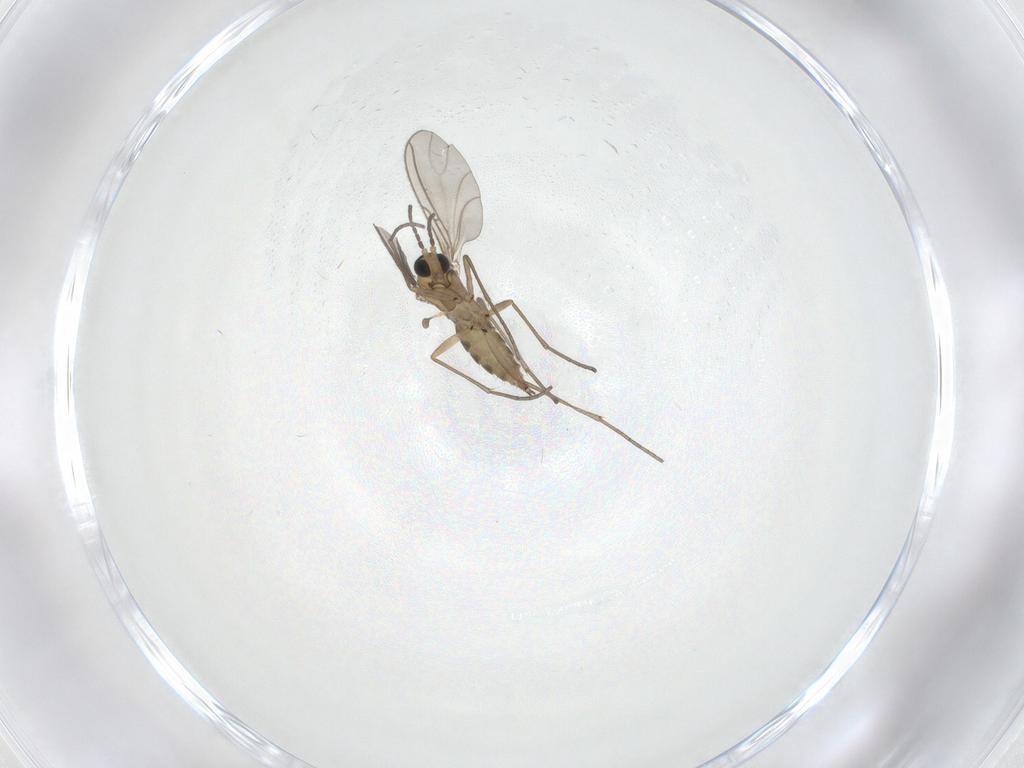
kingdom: Animalia
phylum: Arthropoda
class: Insecta
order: Diptera
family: Sciaridae
